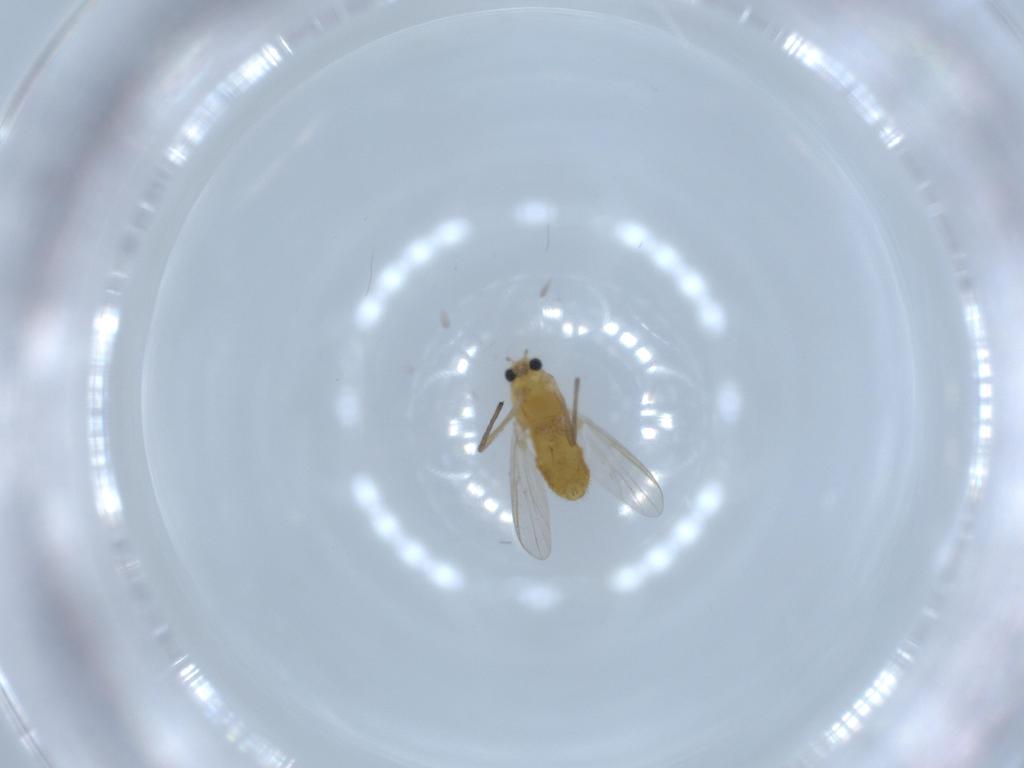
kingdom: Animalia
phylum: Arthropoda
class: Insecta
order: Diptera
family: Chironomidae
